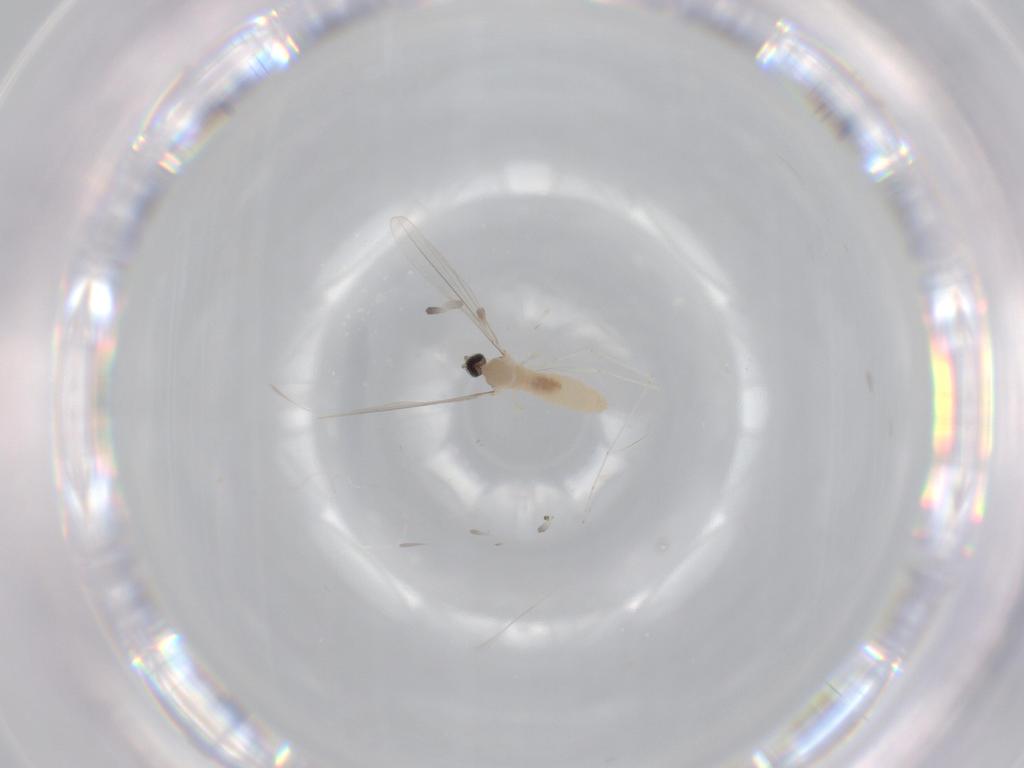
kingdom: Animalia
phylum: Arthropoda
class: Insecta
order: Diptera
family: Cecidomyiidae
